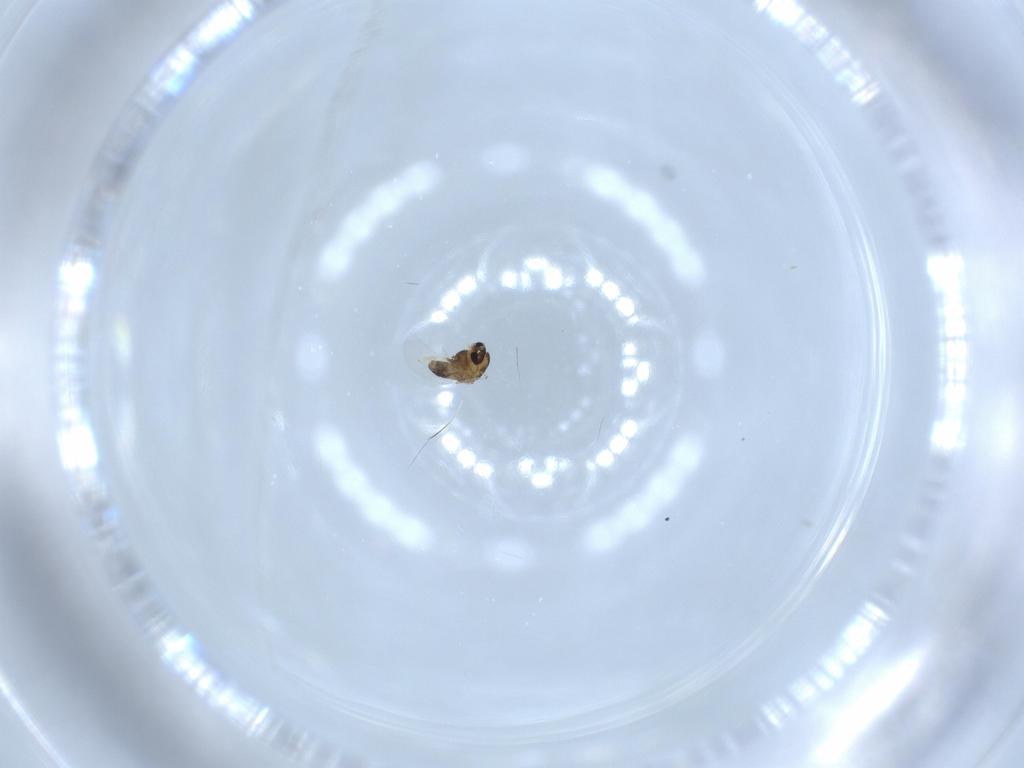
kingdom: Animalia
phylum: Arthropoda
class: Insecta
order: Diptera
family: Chironomidae
